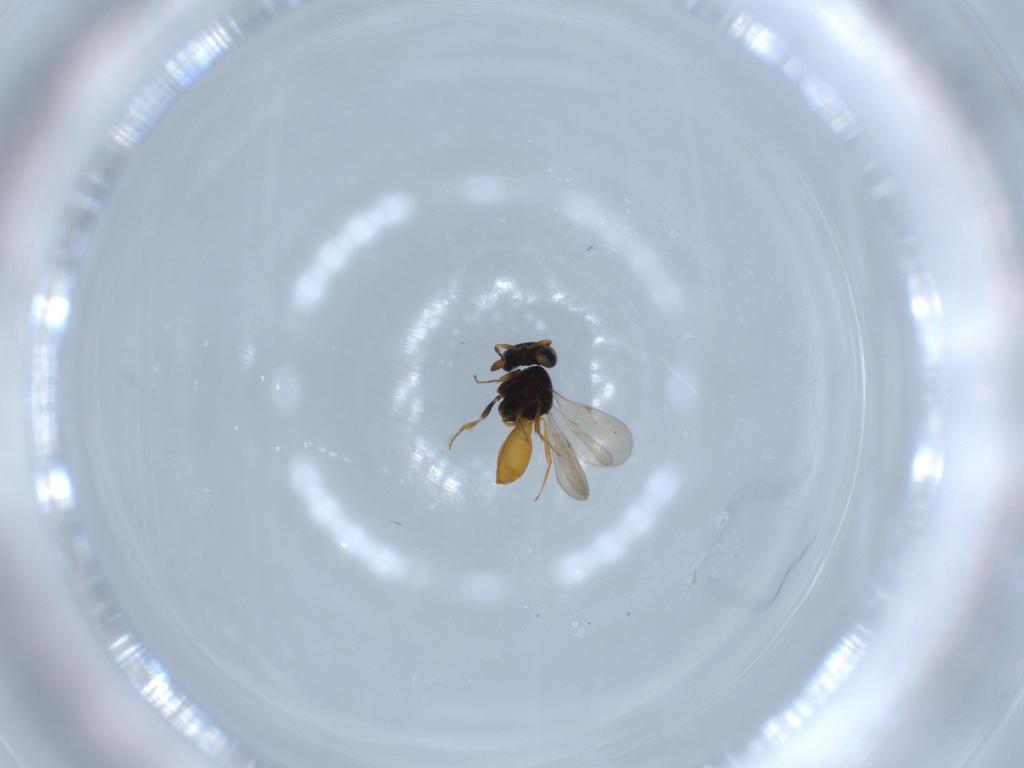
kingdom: Animalia
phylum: Arthropoda
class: Insecta
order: Hymenoptera
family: Scelionidae
